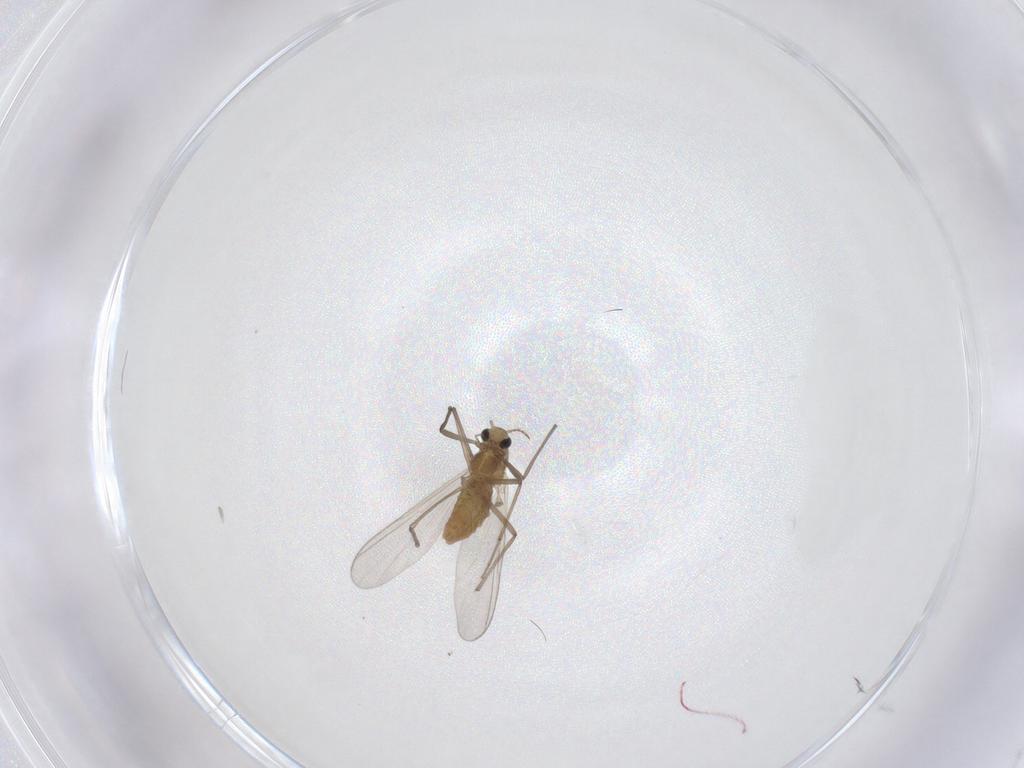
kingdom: Animalia
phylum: Arthropoda
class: Insecta
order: Diptera
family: Chironomidae
